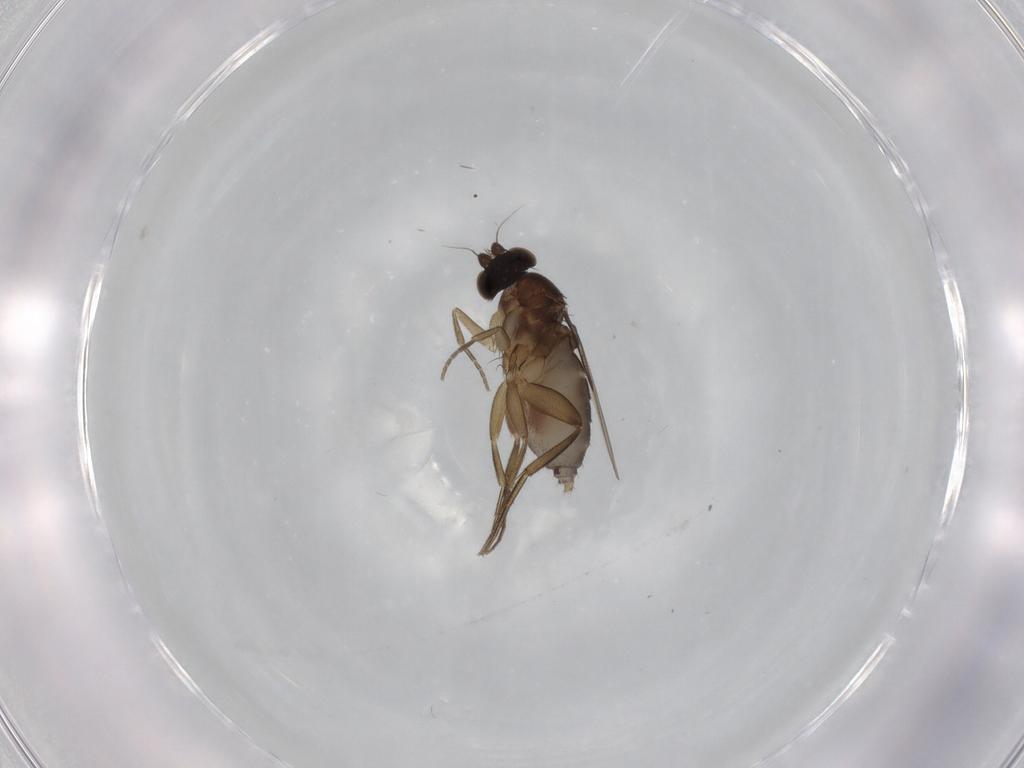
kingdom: Animalia
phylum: Arthropoda
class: Insecta
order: Diptera
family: Phoridae
